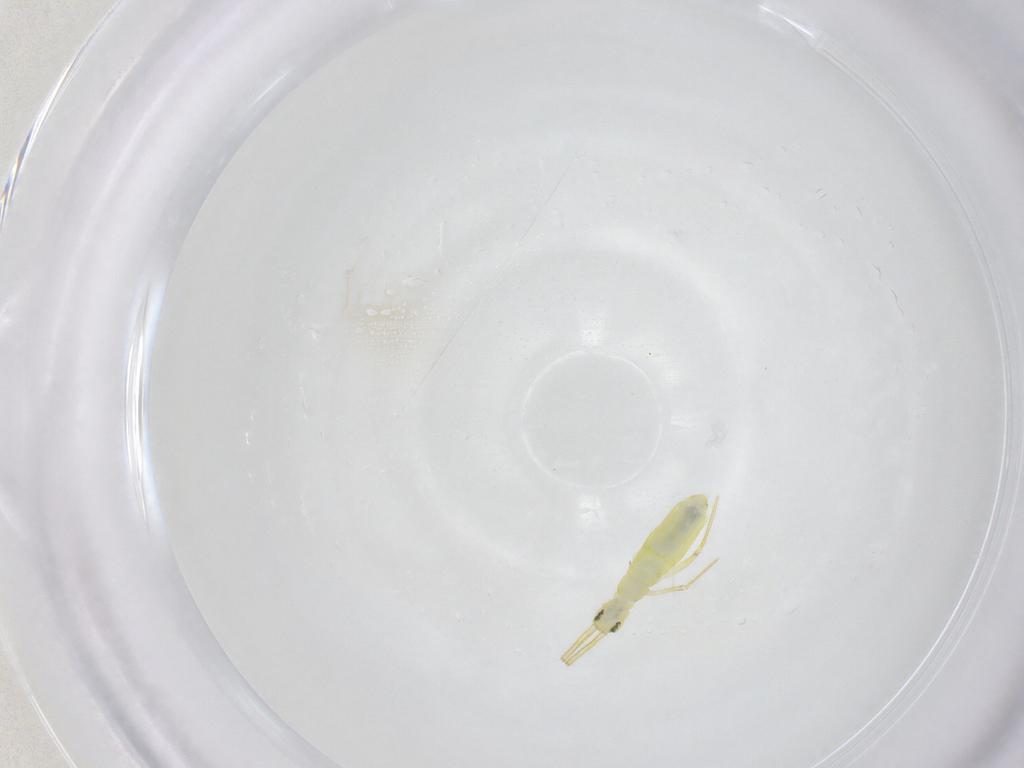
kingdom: Animalia
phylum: Arthropoda
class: Collembola
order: Entomobryomorpha
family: Entomobryidae
